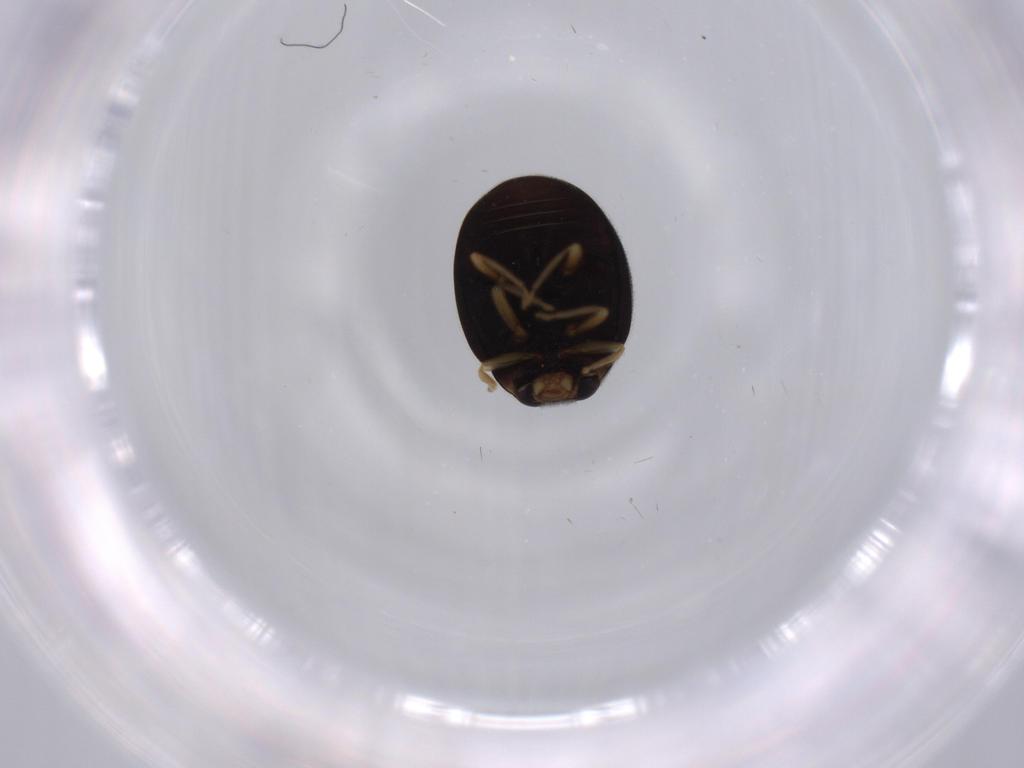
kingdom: Animalia
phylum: Arthropoda
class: Insecta
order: Coleoptera
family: Coccinellidae
